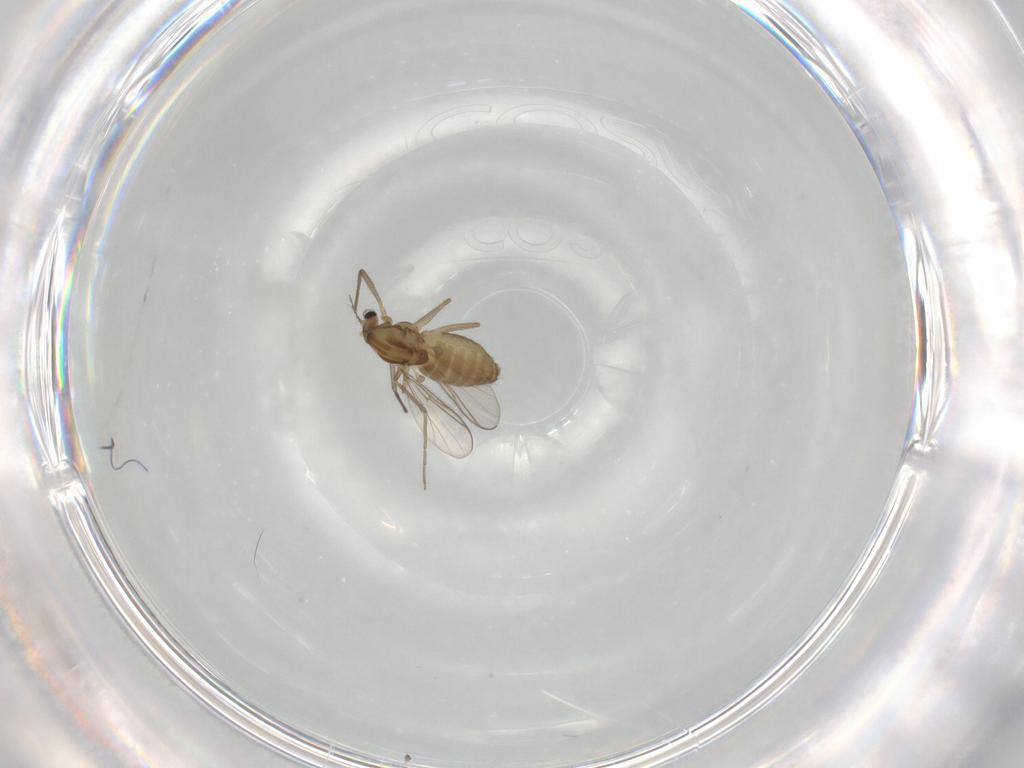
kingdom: Animalia
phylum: Arthropoda
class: Insecta
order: Diptera
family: Chironomidae
